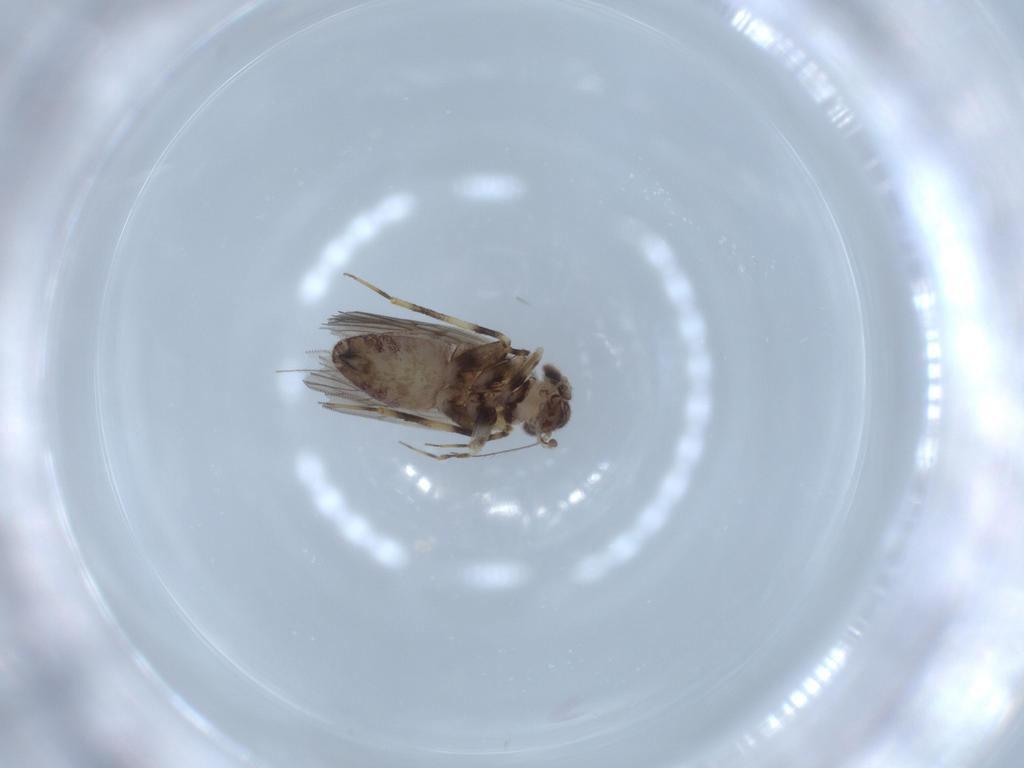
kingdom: Animalia
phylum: Arthropoda
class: Insecta
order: Psocodea
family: Lepidopsocidae
